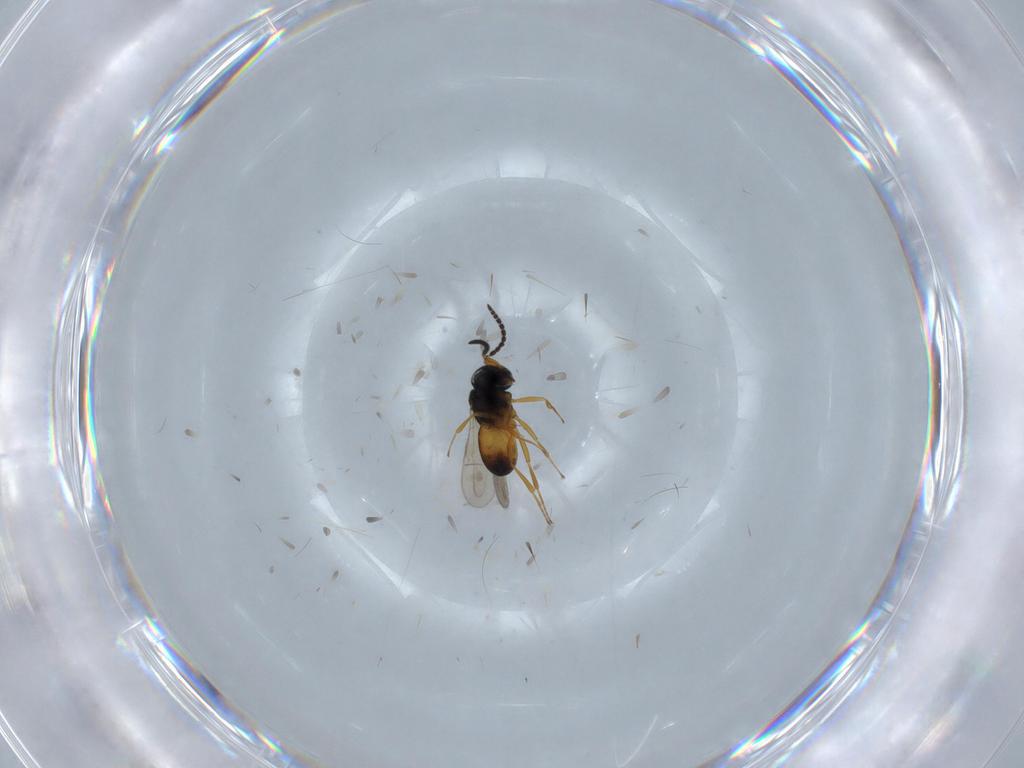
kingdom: Animalia
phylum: Arthropoda
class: Insecta
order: Hymenoptera
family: Scelionidae
